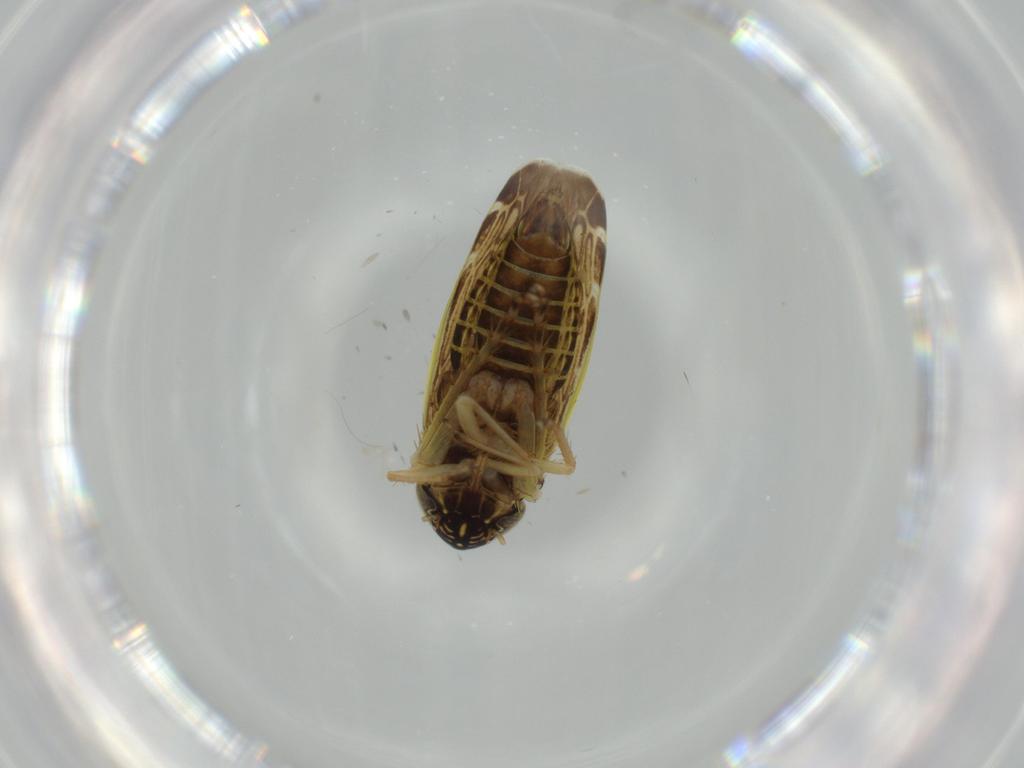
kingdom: Animalia
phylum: Arthropoda
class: Insecta
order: Hemiptera
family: Cicadellidae
